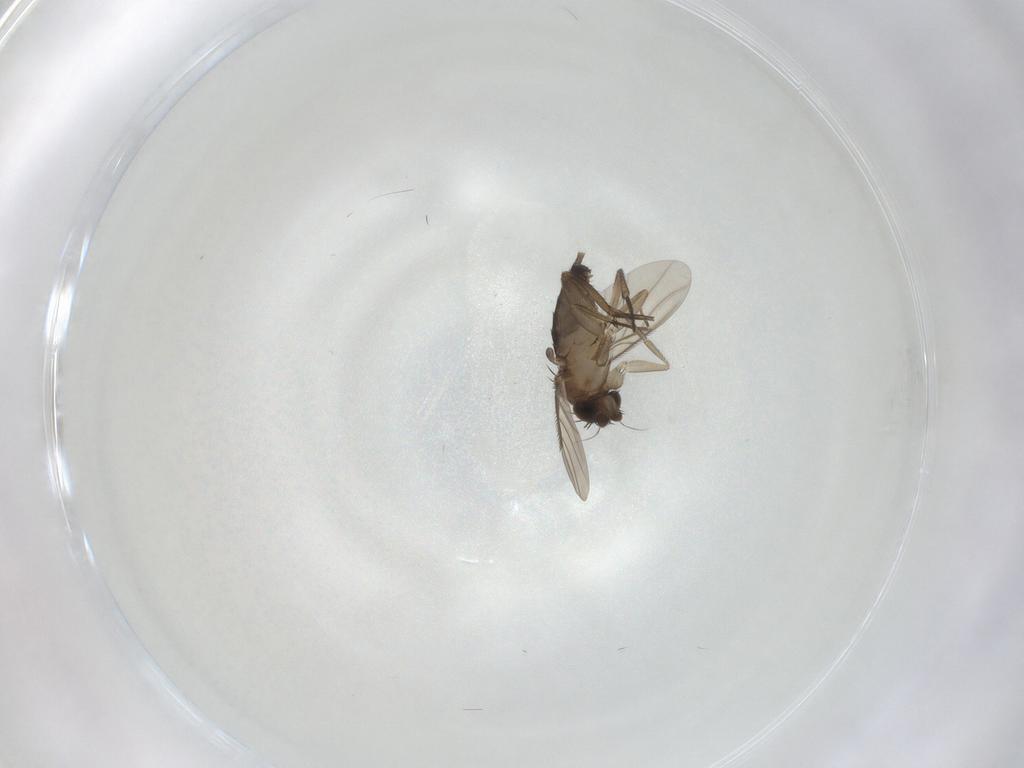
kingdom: Animalia
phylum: Arthropoda
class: Insecta
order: Diptera
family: Phoridae
